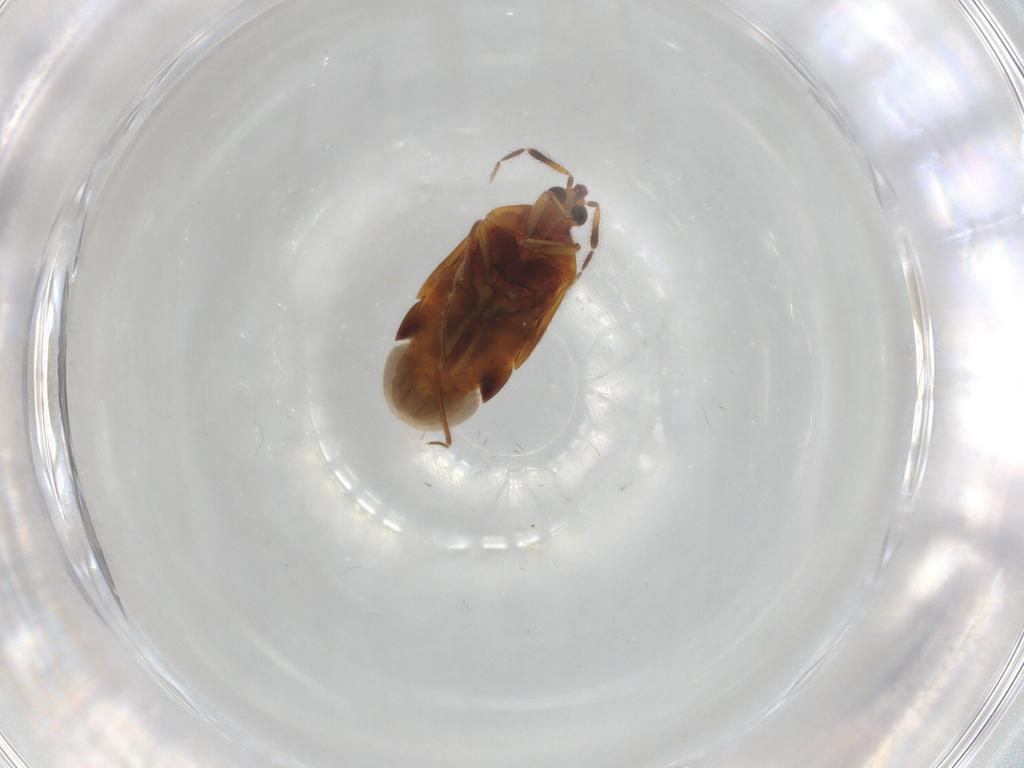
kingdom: Animalia
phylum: Arthropoda
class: Insecta
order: Hemiptera
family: Anthocoridae
